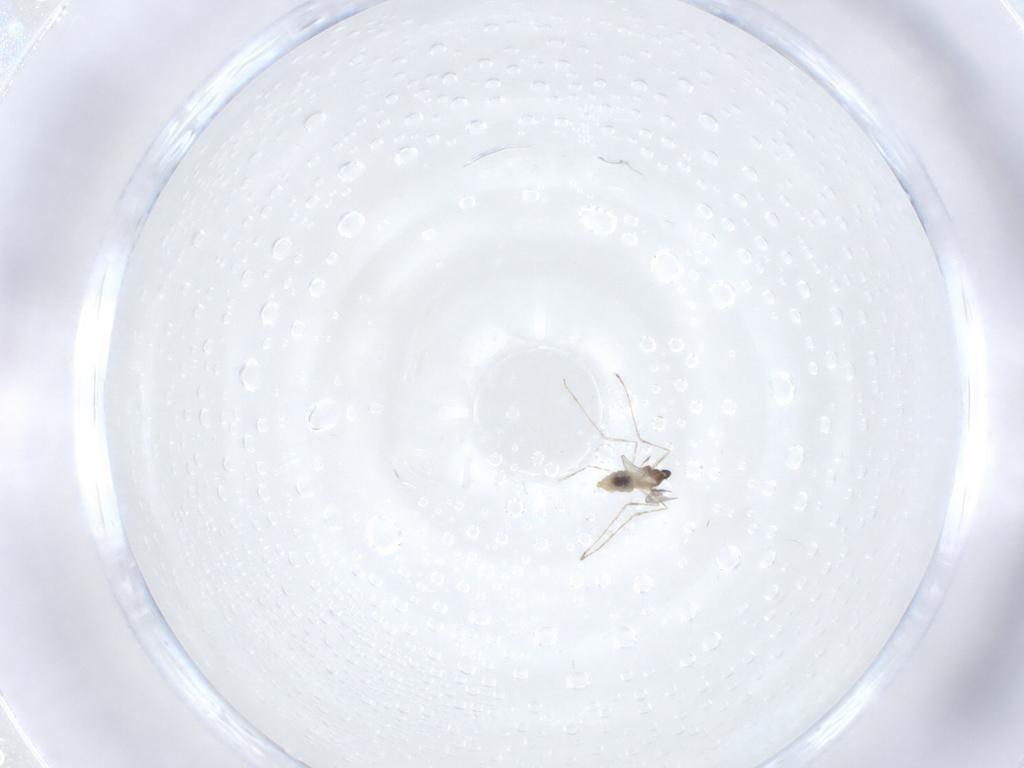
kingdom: Animalia
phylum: Arthropoda
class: Insecta
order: Diptera
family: Cecidomyiidae
